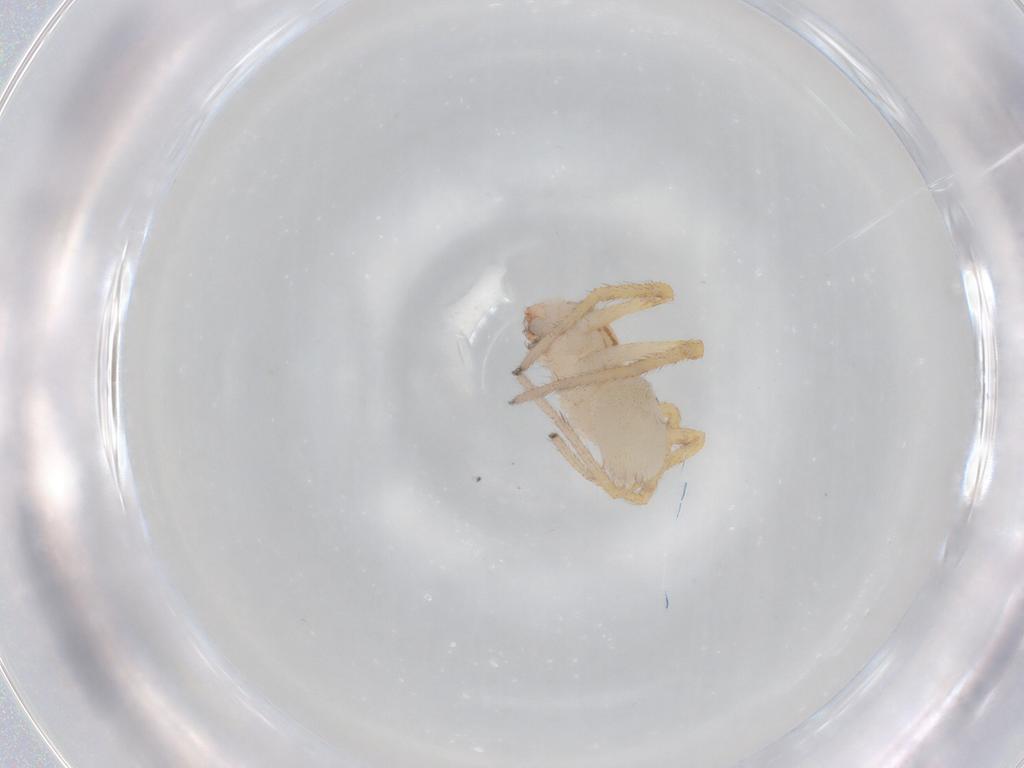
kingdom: Animalia
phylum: Arthropoda
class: Arachnida
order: Araneae
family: Corinnidae
